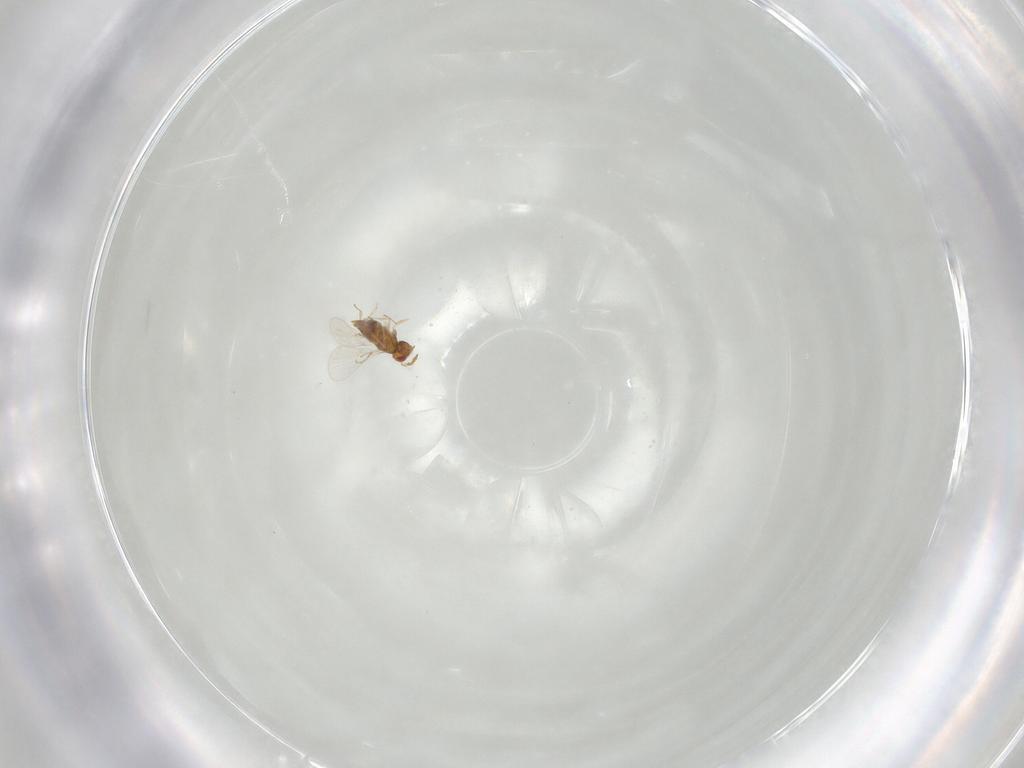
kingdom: Animalia
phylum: Arthropoda
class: Insecta
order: Hymenoptera
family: Trichogrammatidae
